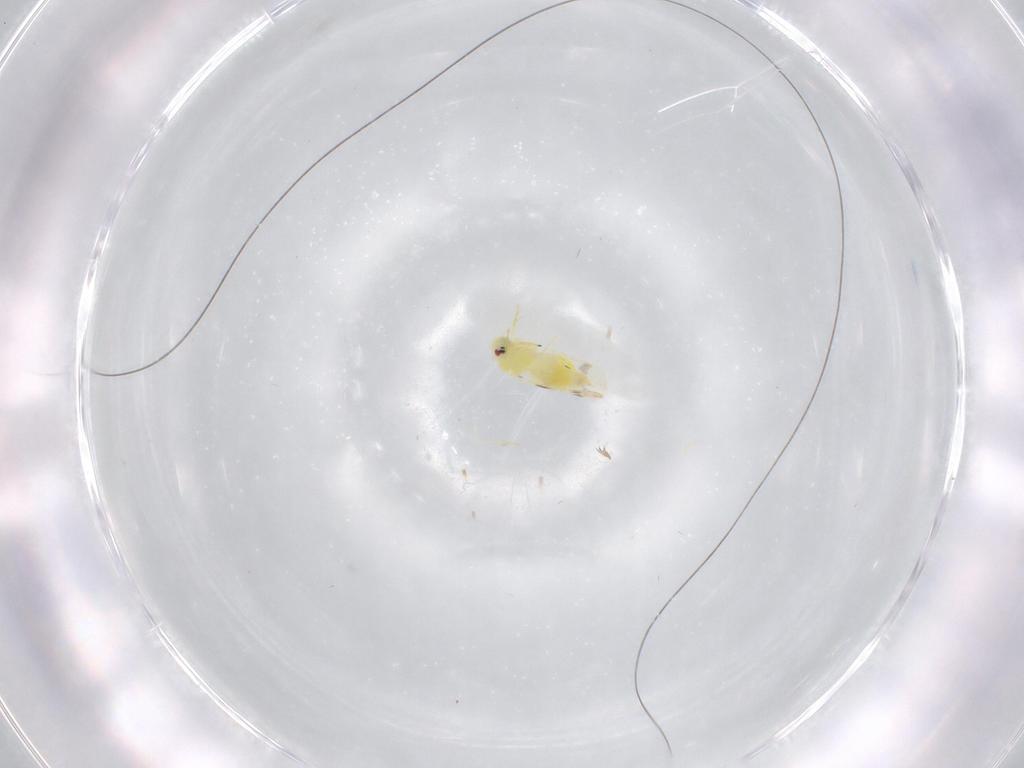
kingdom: Animalia
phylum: Arthropoda
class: Insecta
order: Hemiptera
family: Aleyrodidae
